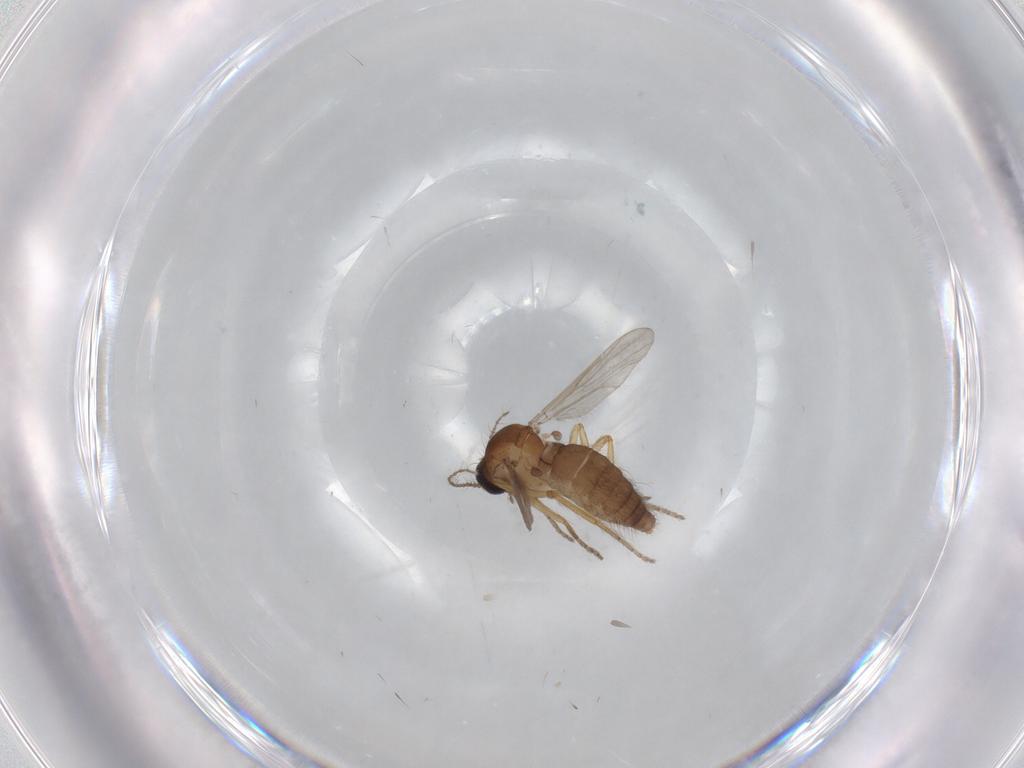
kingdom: Animalia
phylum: Arthropoda
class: Insecta
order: Diptera
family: Ceratopogonidae
